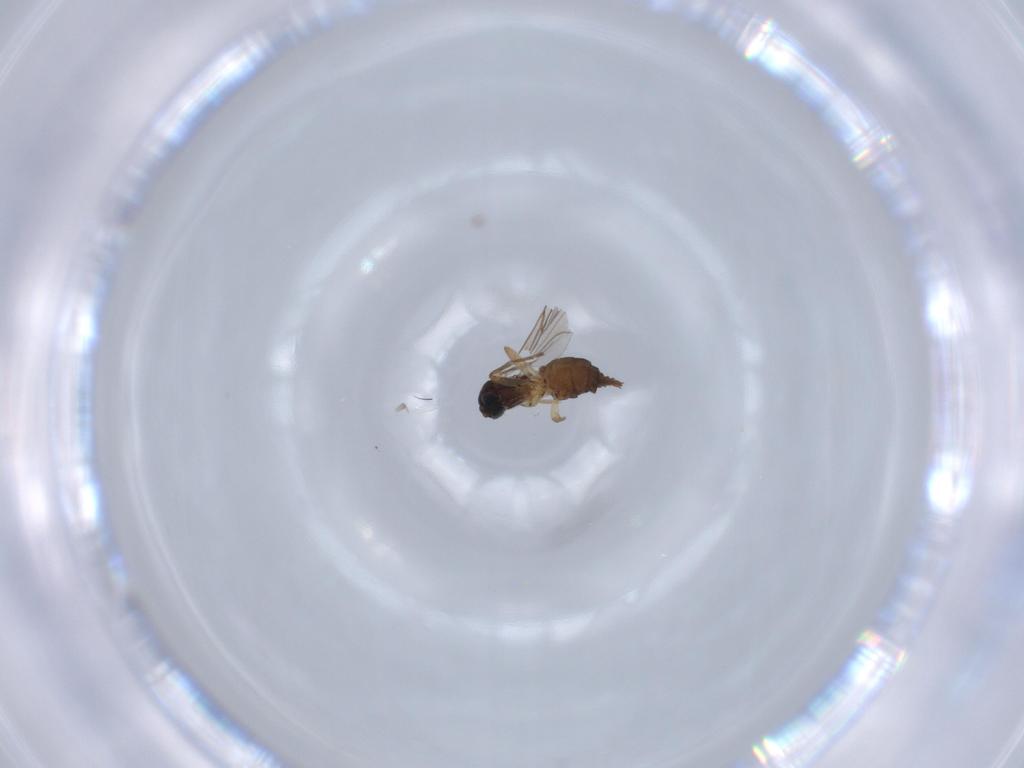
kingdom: Animalia
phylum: Arthropoda
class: Insecta
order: Diptera
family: Sciaridae
